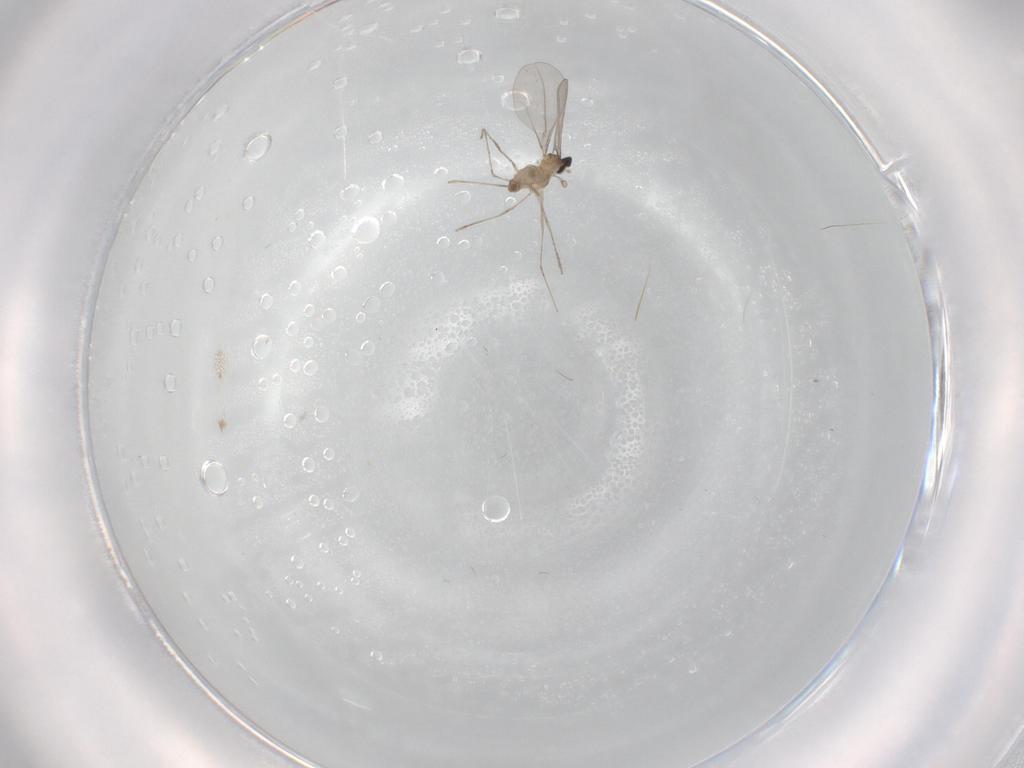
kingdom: Animalia
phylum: Arthropoda
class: Insecta
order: Diptera
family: Cecidomyiidae
